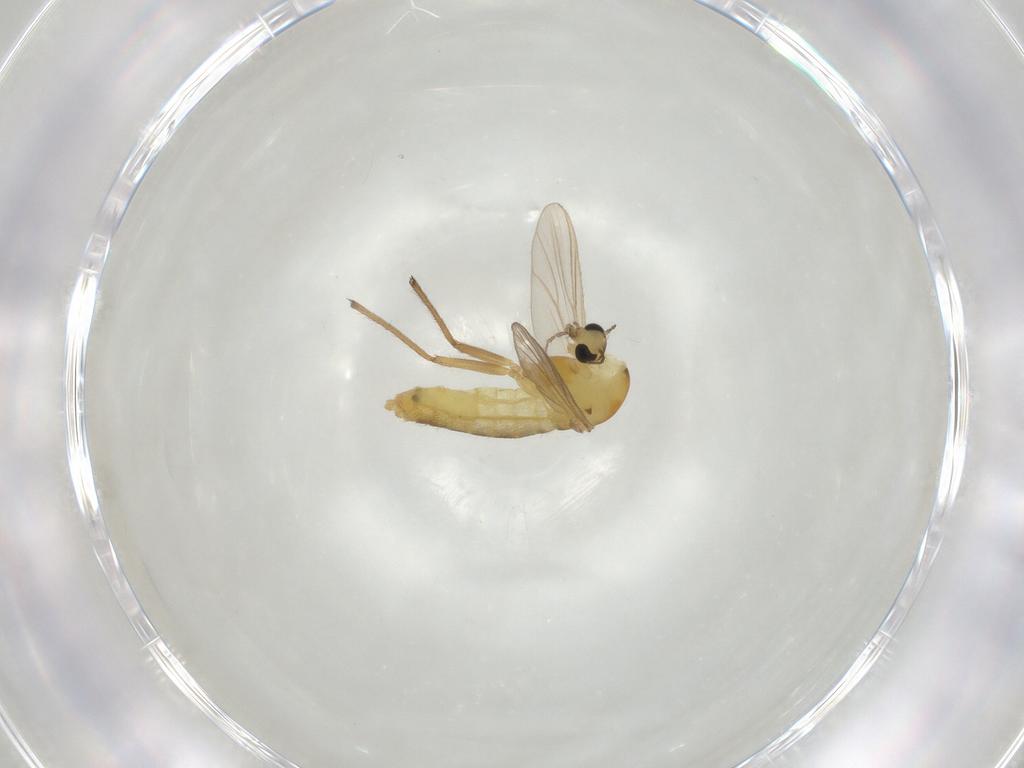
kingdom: Animalia
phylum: Arthropoda
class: Insecta
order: Diptera
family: Chironomidae
